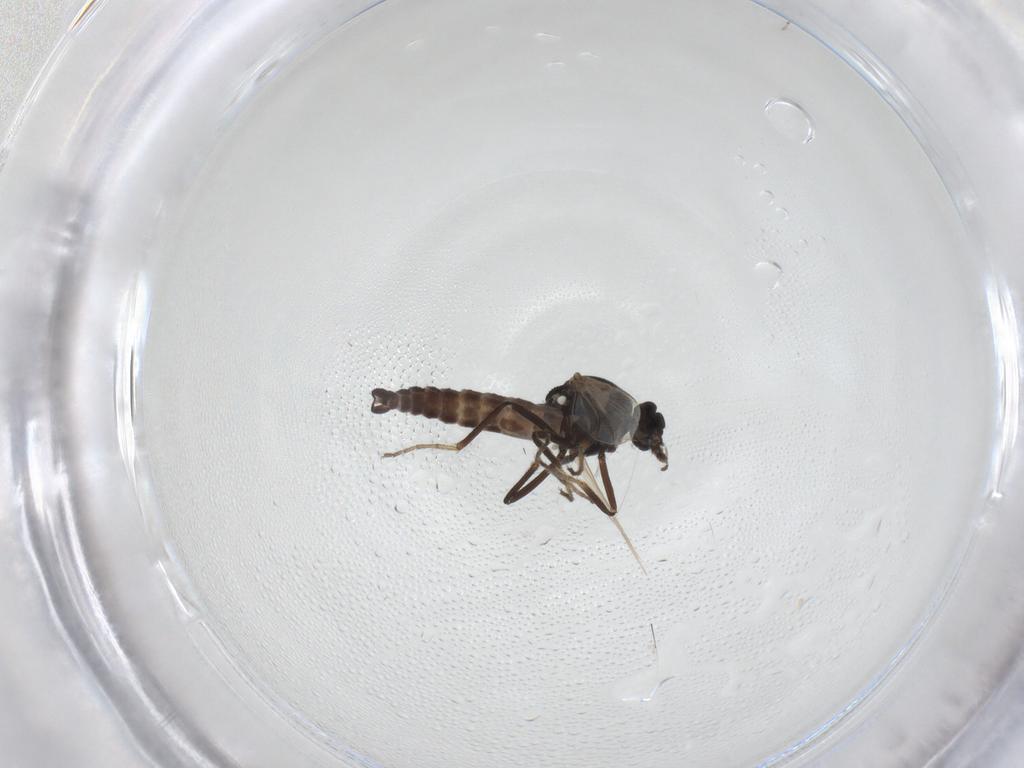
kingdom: Animalia
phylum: Arthropoda
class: Insecta
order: Diptera
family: Ceratopogonidae
